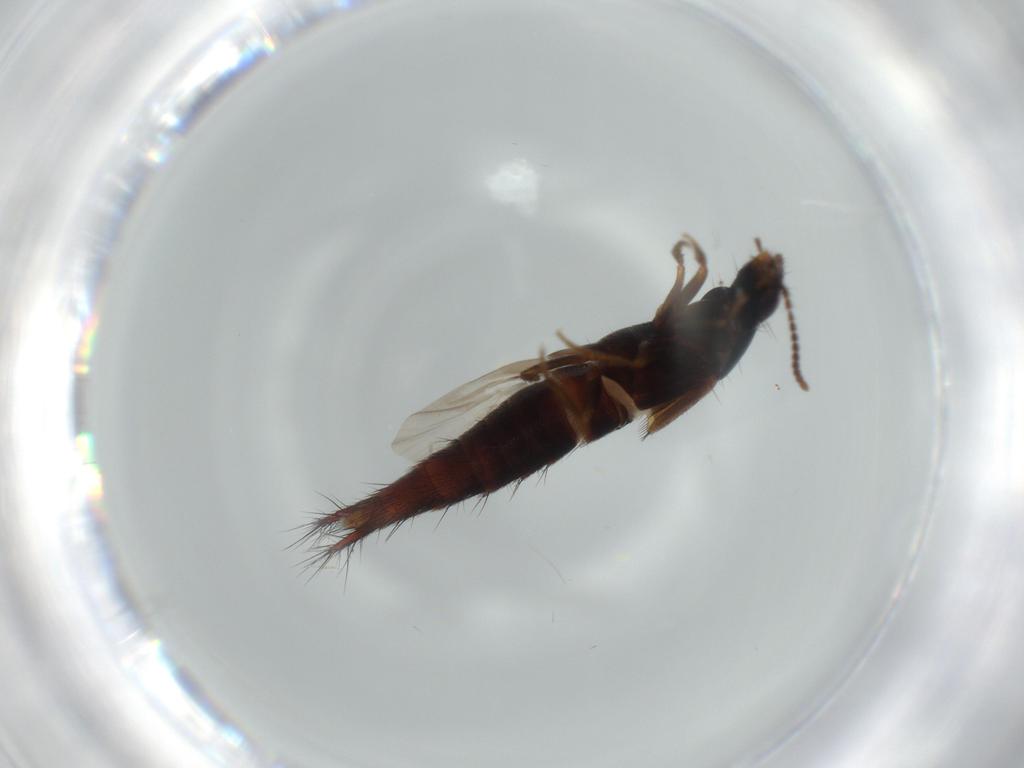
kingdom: Animalia
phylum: Arthropoda
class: Insecta
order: Coleoptera
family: Staphylinidae
